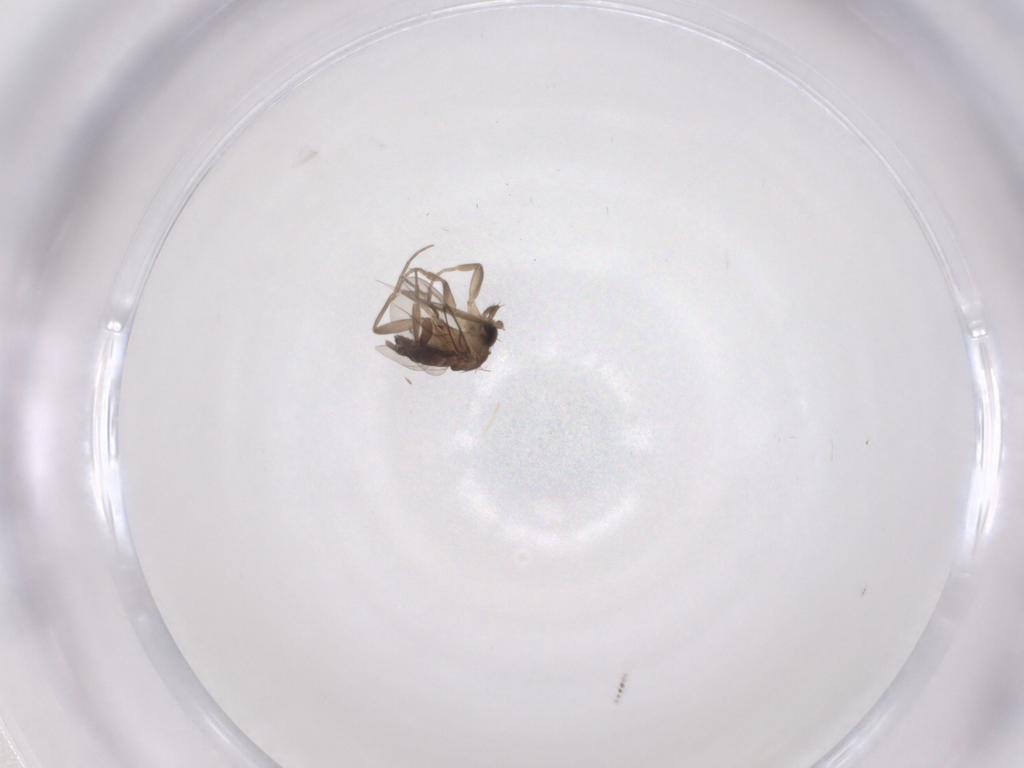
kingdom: Animalia
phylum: Arthropoda
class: Insecta
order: Diptera
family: Phoridae
